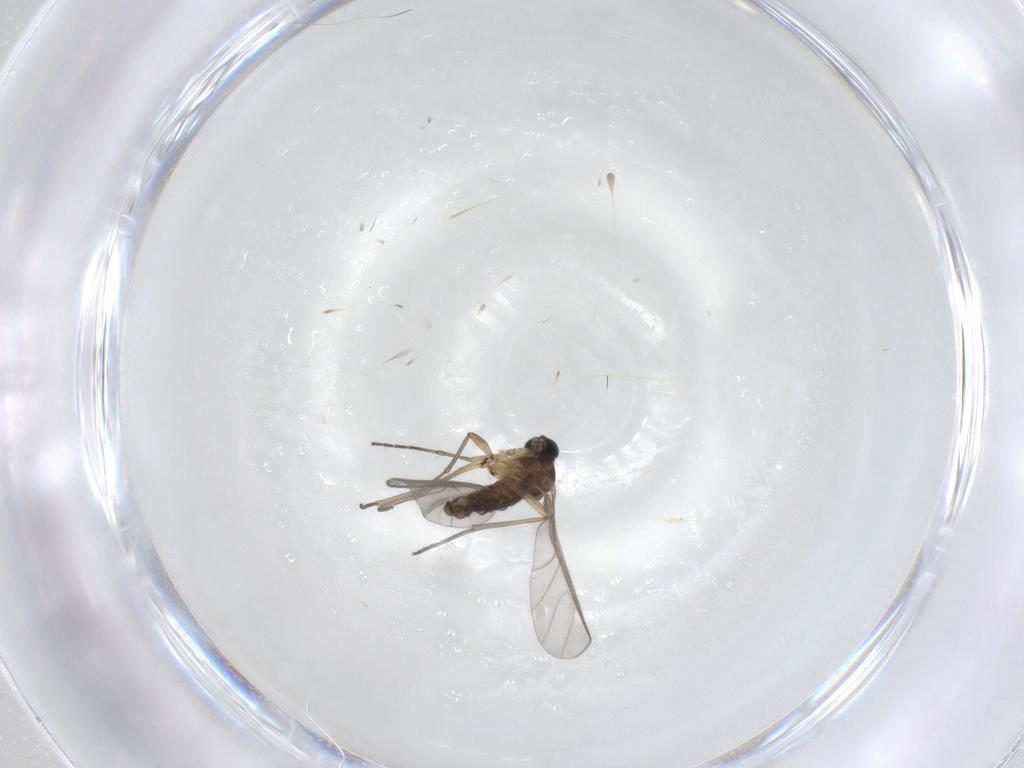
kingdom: Animalia
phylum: Arthropoda
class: Insecta
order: Diptera
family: Sciaridae
